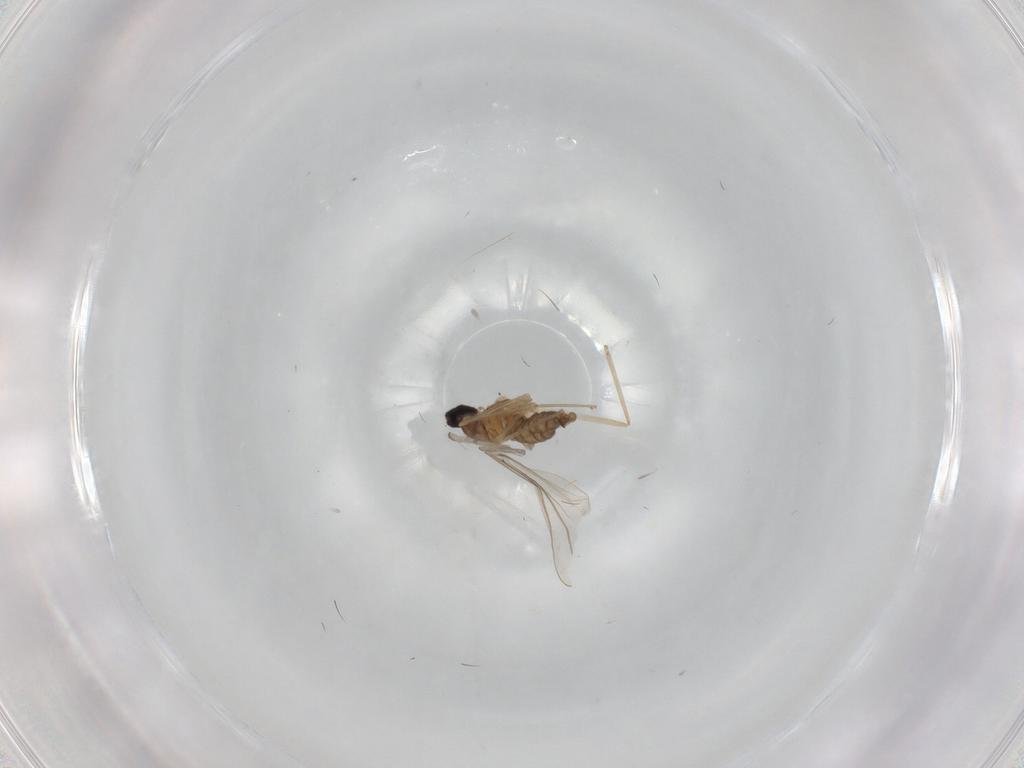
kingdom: Animalia
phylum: Arthropoda
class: Insecta
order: Diptera
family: Cecidomyiidae
